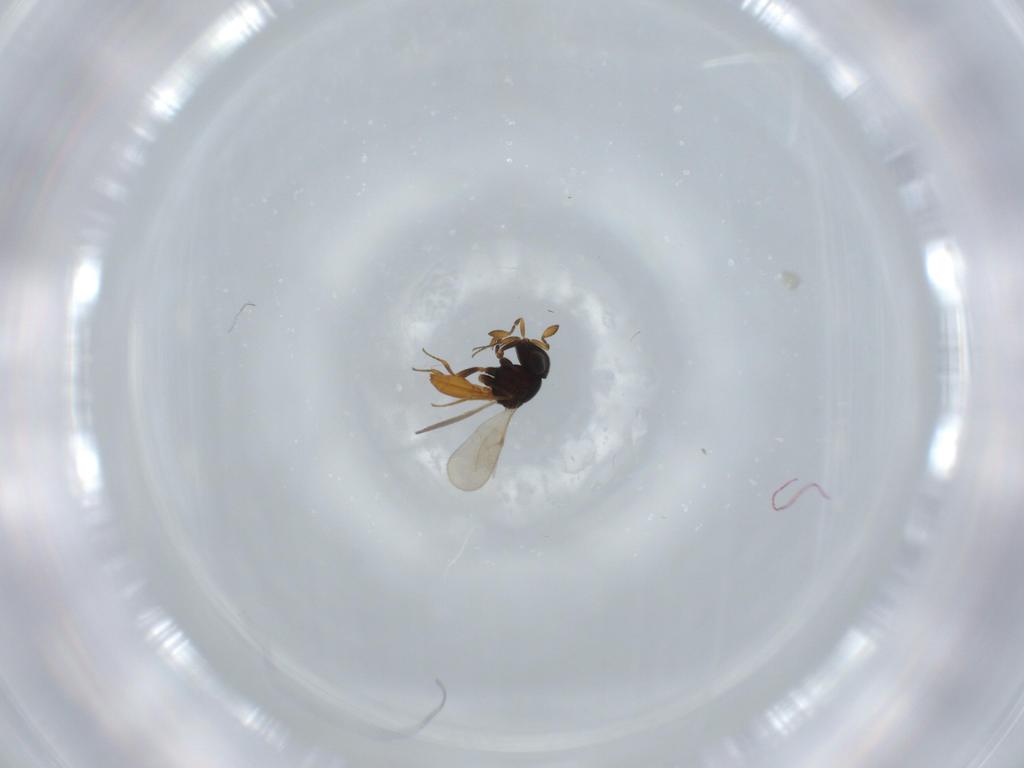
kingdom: Animalia
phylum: Arthropoda
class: Insecta
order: Hymenoptera
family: Scelionidae
